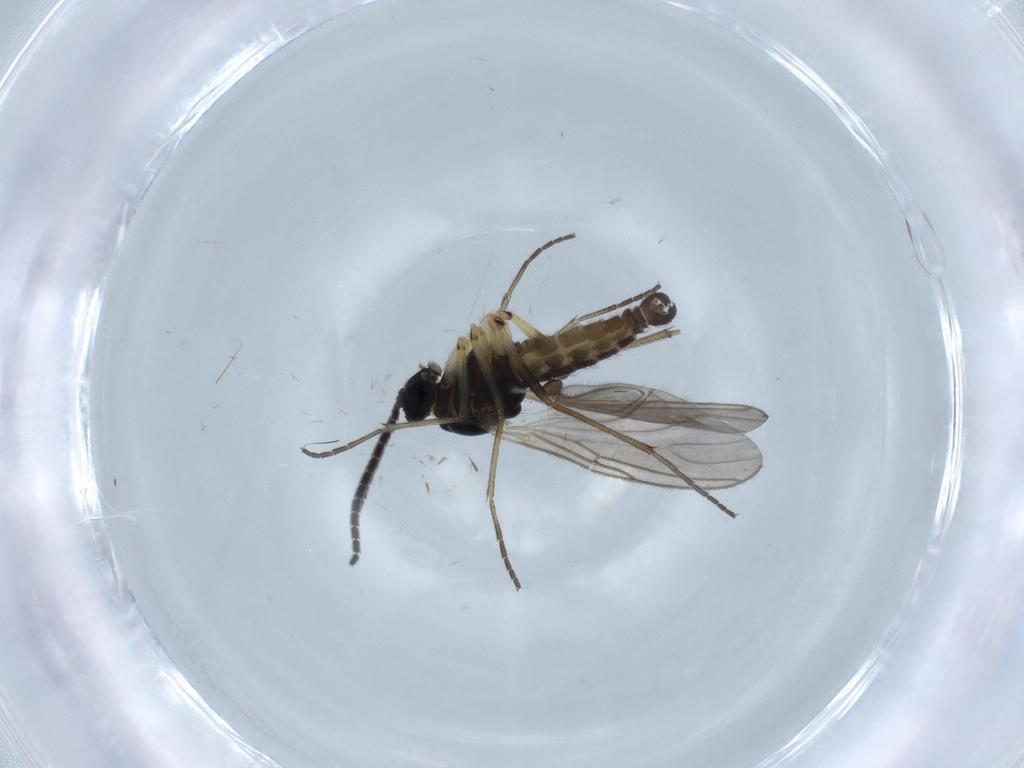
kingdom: Animalia
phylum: Arthropoda
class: Insecta
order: Diptera
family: Sciaridae
